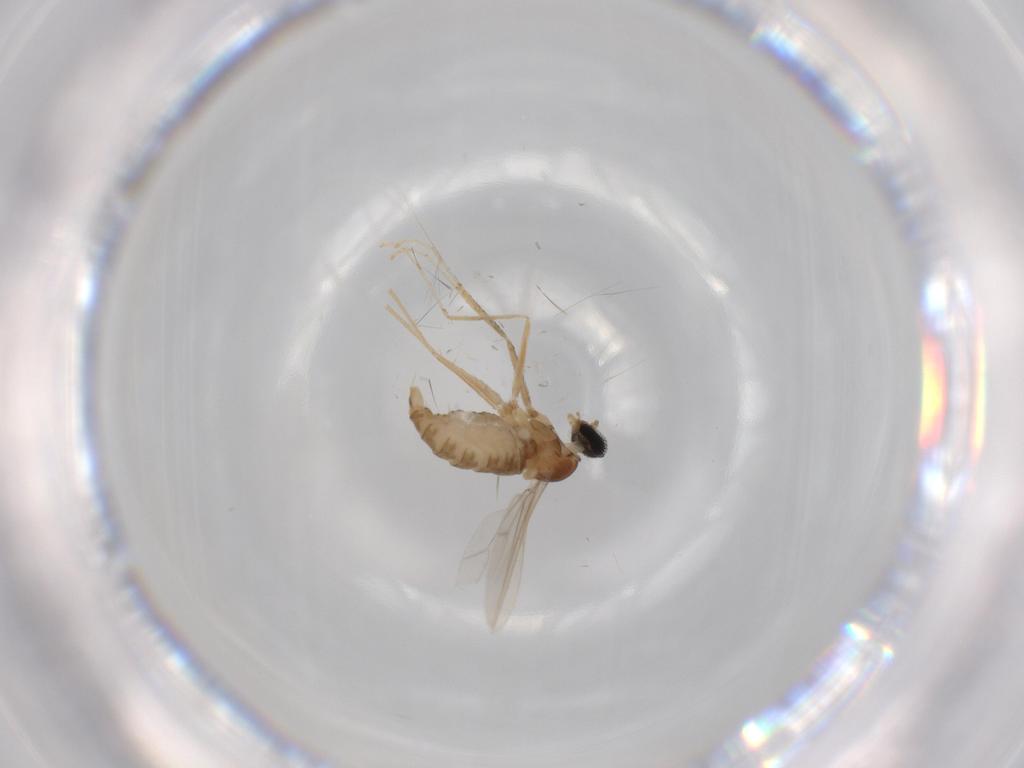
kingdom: Animalia
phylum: Arthropoda
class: Insecta
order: Diptera
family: Cecidomyiidae
